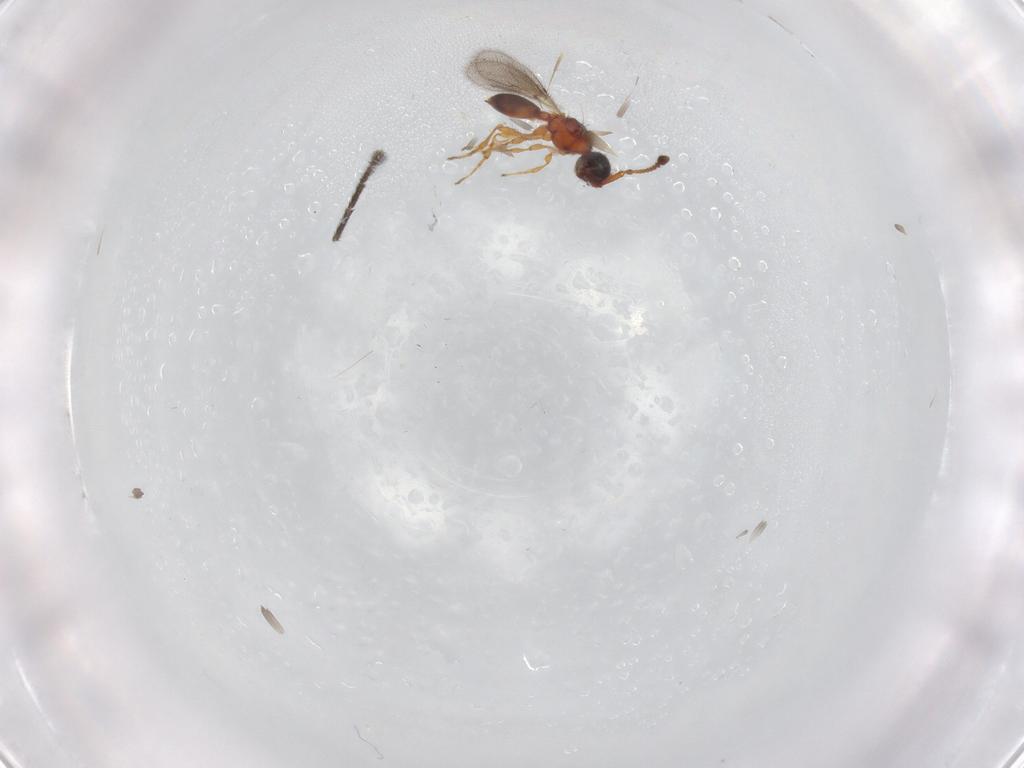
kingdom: Animalia
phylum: Arthropoda
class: Insecta
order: Hymenoptera
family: Diapriidae
